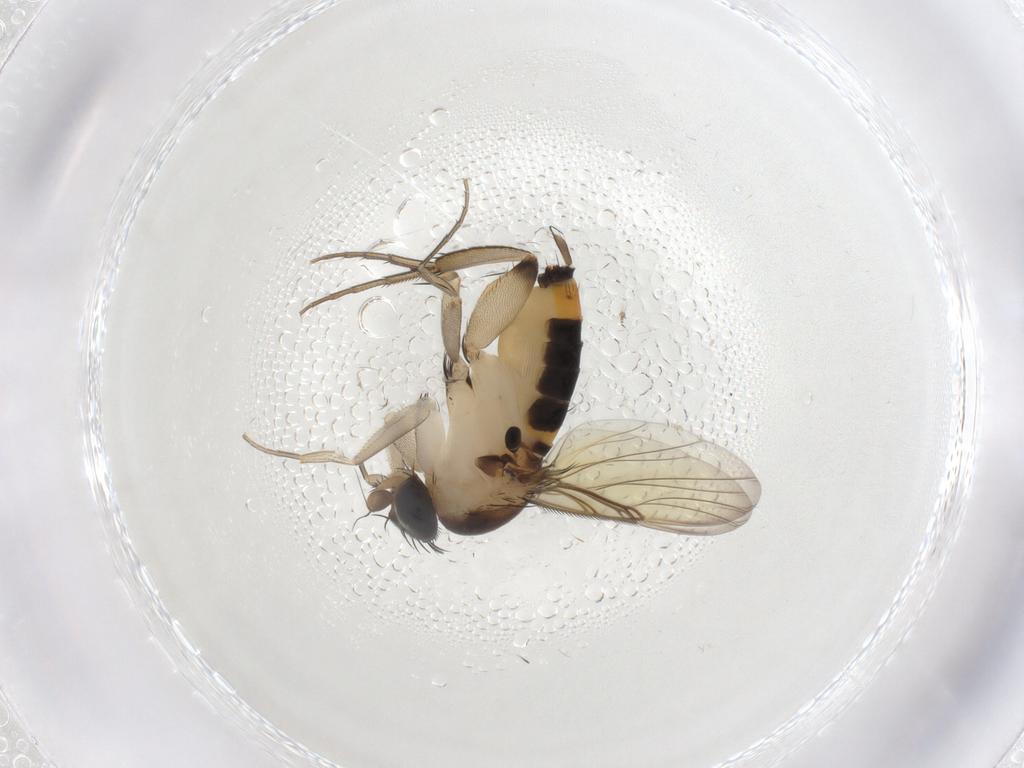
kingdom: Animalia
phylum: Arthropoda
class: Insecta
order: Diptera
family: Phoridae
